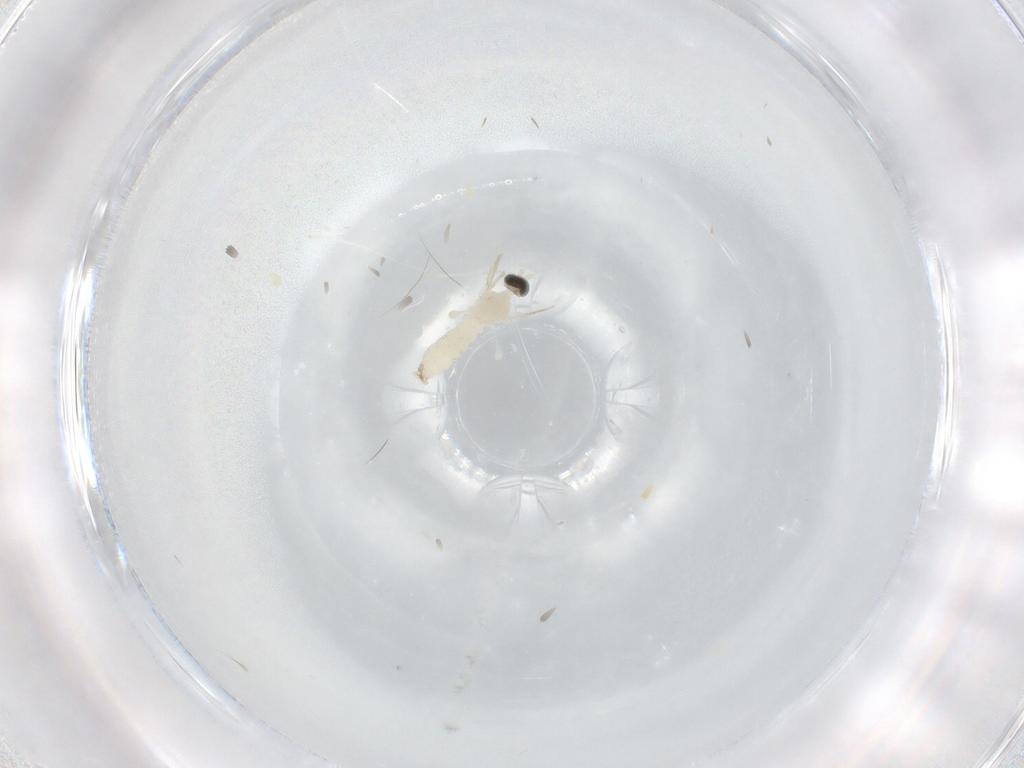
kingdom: Animalia
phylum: Arthropoda
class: Insecta
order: Diptera
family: Cecidomyiidae
